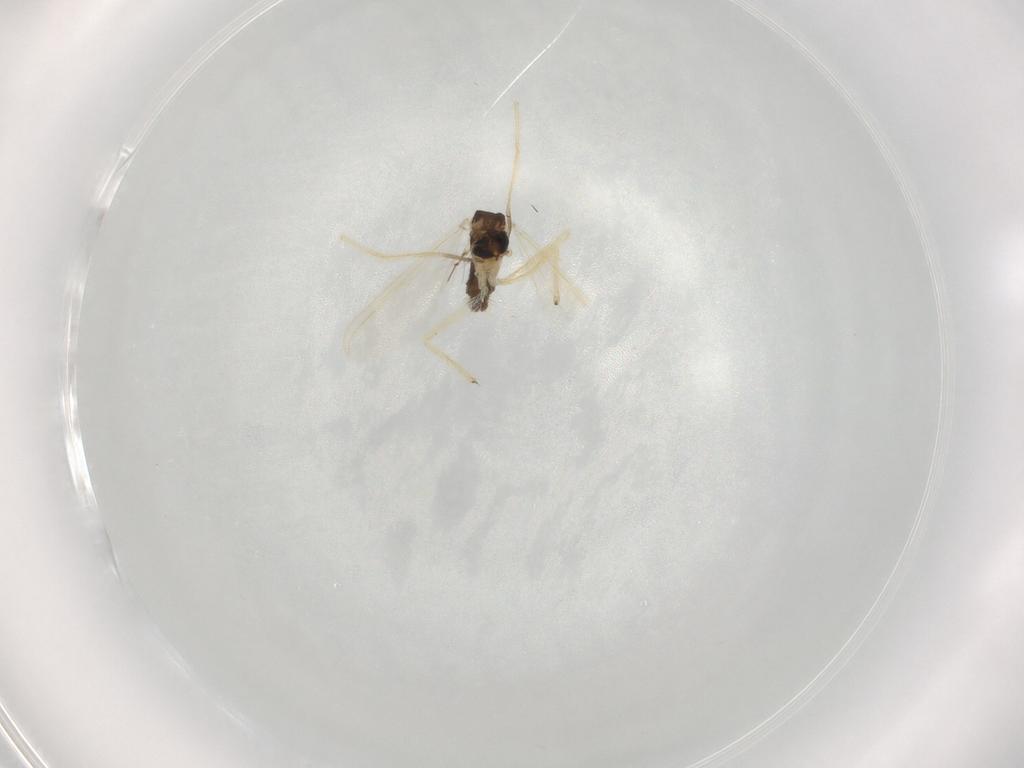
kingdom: Animalia
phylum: Arthropoda
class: Insecta
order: Diptera
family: Chironomidae
